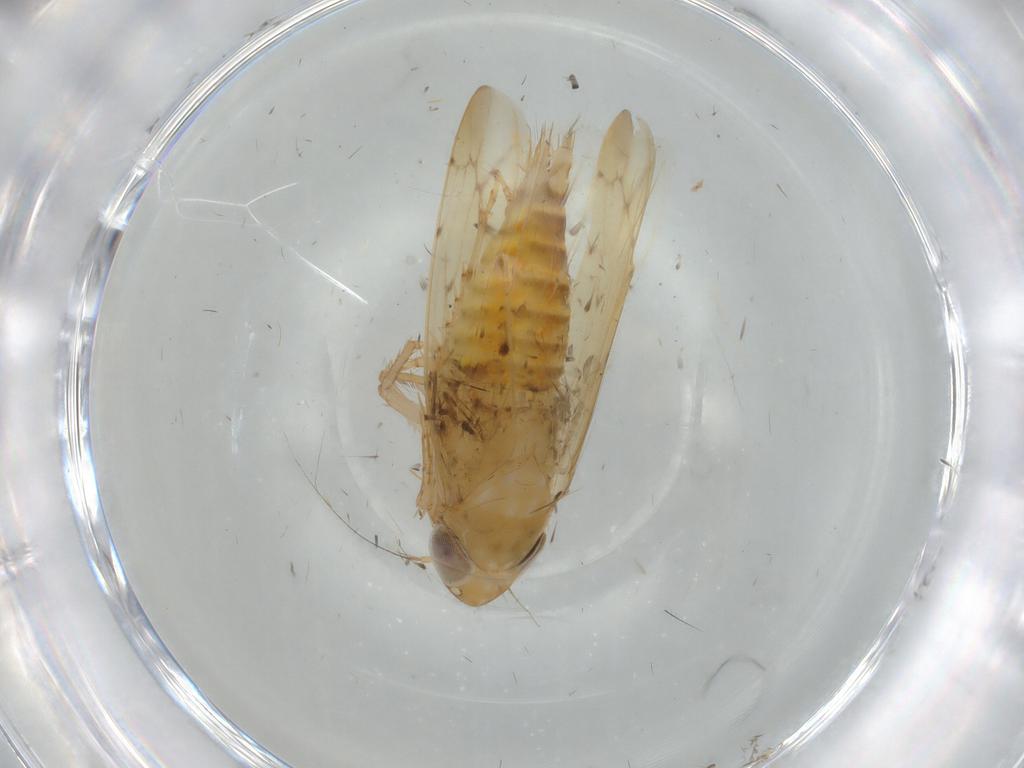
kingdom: Animalia
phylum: Arthropoda
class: Insecta
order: Hemiptera
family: Cicadellidae
